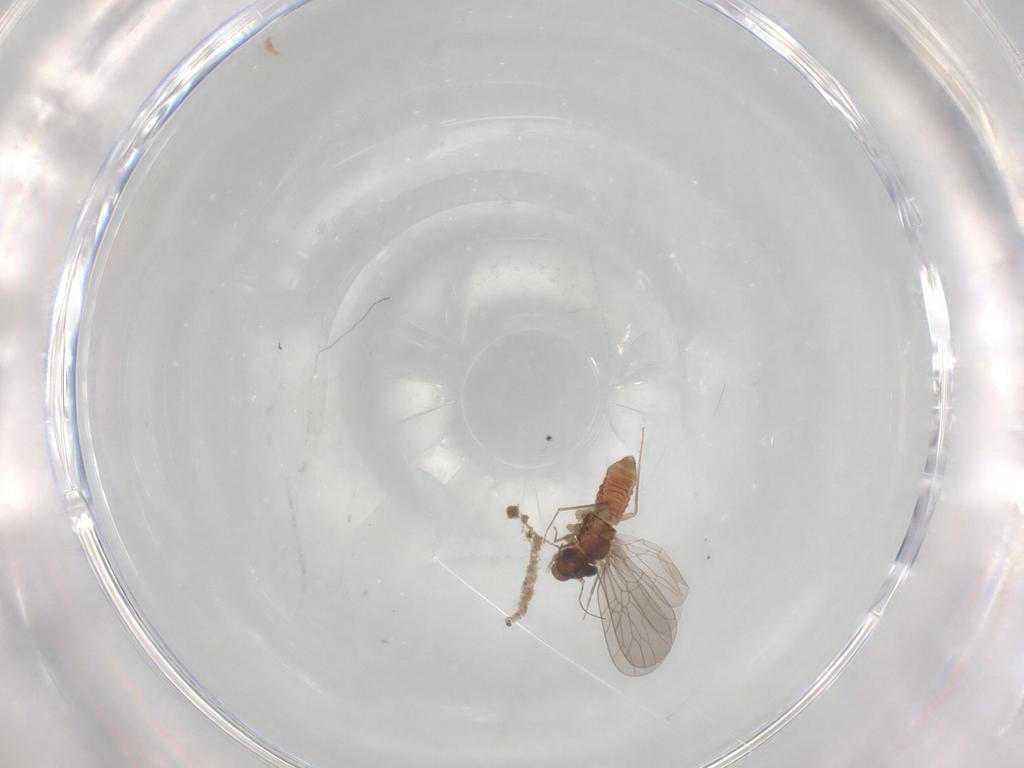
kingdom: Animalia
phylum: Arthropoda
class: Insecta
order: Psocodea
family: Lepidopsocidae
